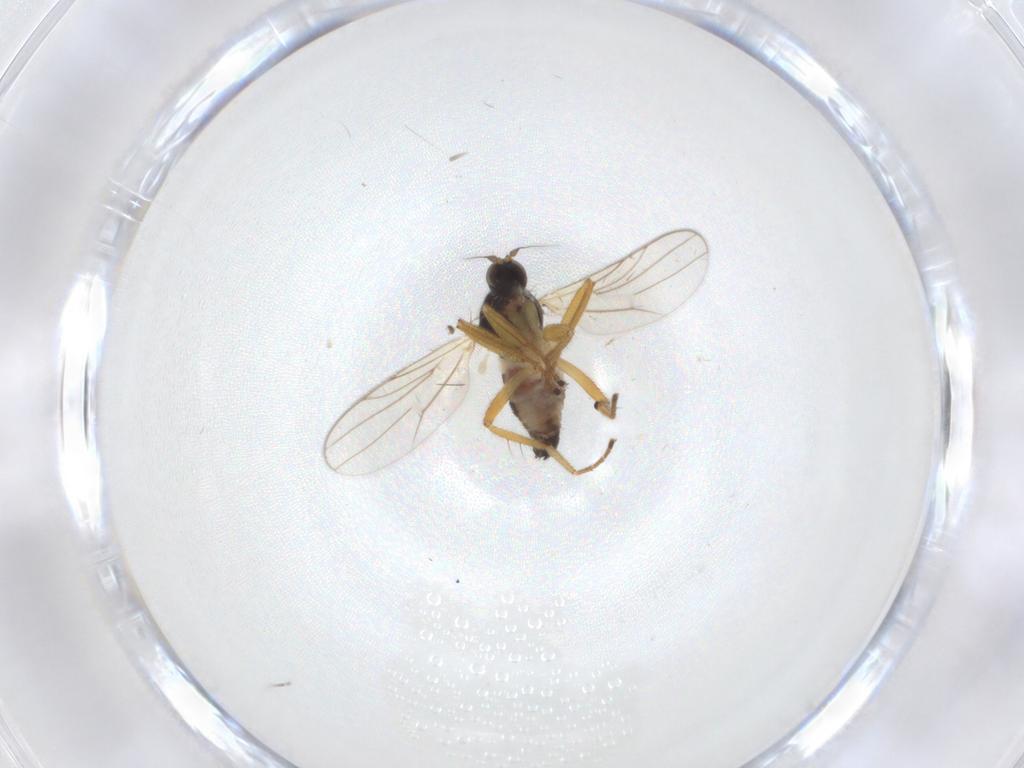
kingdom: Animalia
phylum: Arthropoda
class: Insecta
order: Diptera
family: Hybotidae
